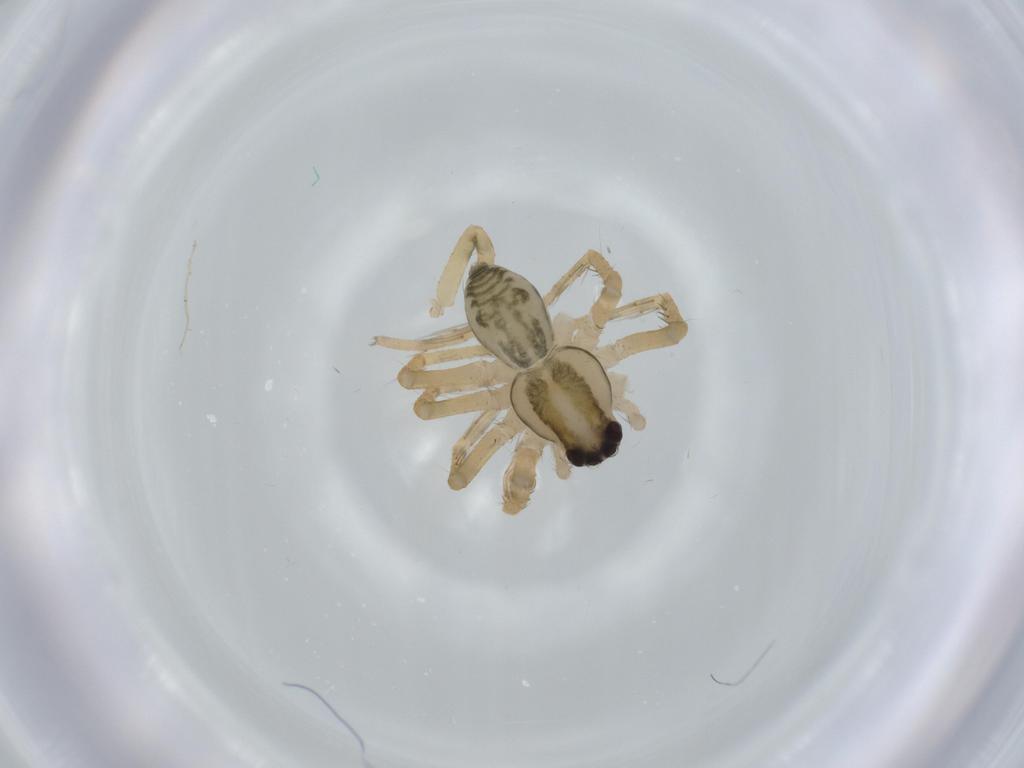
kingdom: Animalia
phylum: Arthropoda
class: Arachnida
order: Araneae
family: Ctenidae
